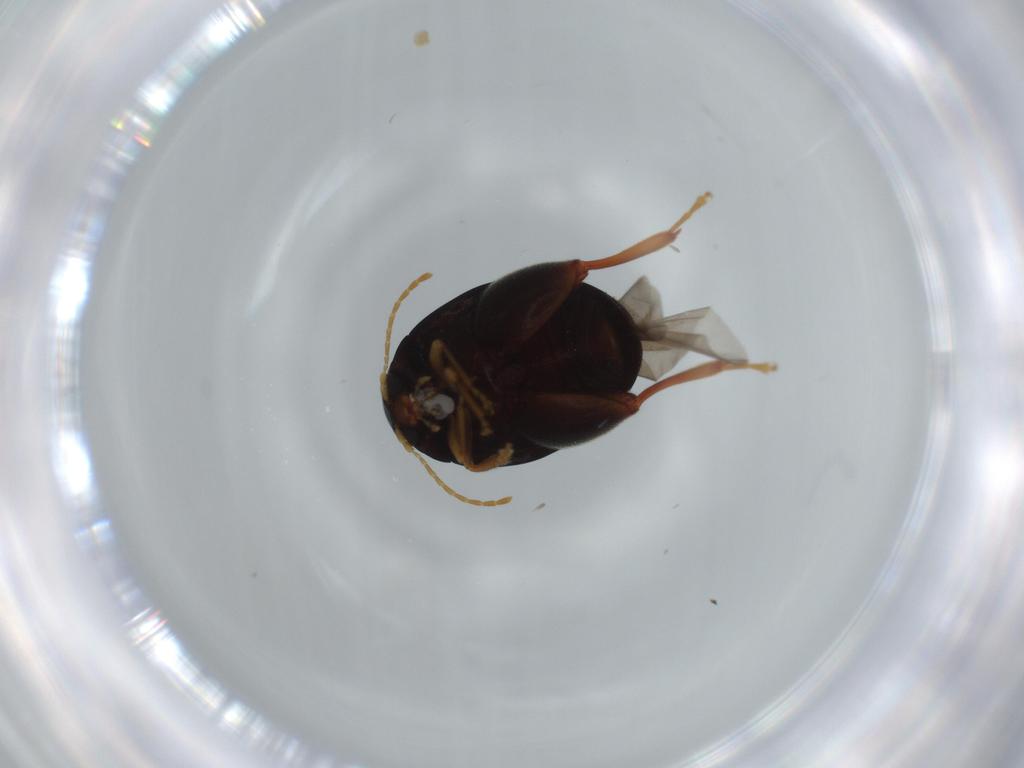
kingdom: Animalia
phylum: Arthropoda
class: Insecta
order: Coleoptera
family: Chrysomelidae
